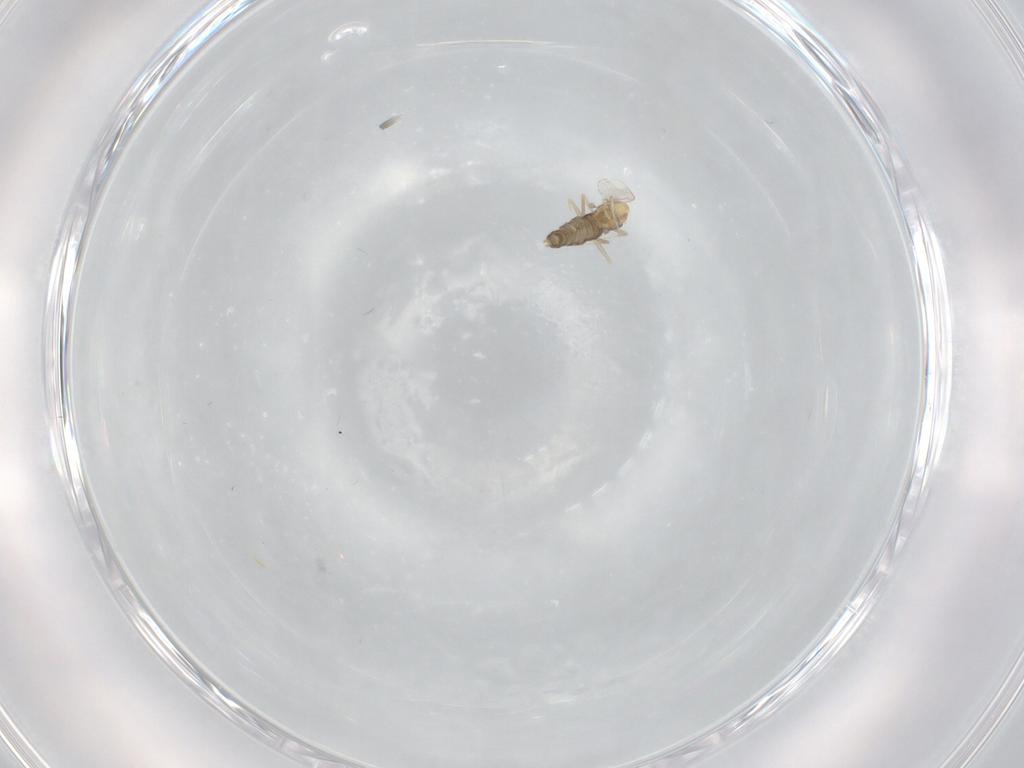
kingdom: Animalia
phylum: Arthropoda
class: Insecta
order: Diptera
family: Chironomidae
